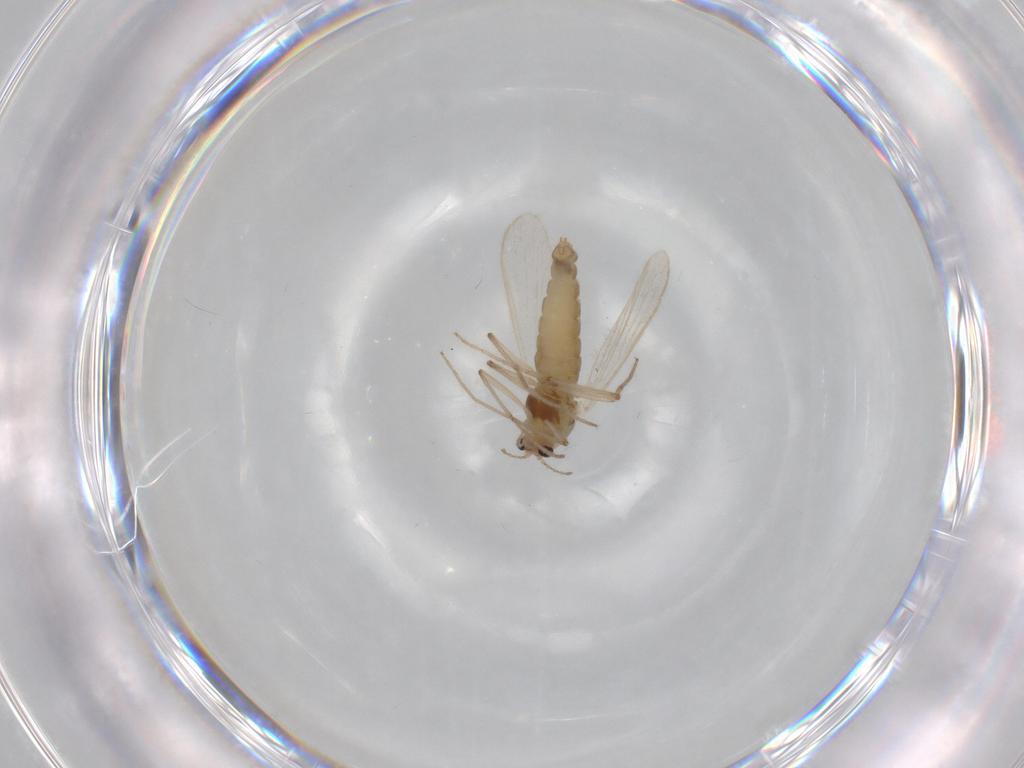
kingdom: Animalia
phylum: Arthropoda
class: Insecta
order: Diptera
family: Chironomidae
